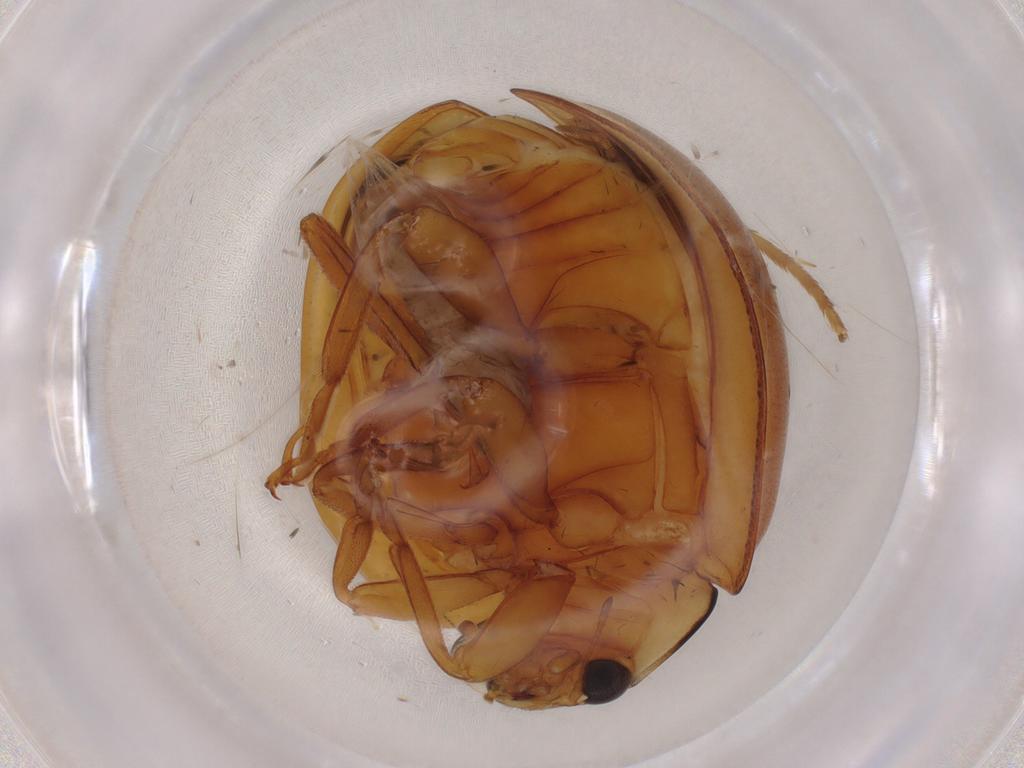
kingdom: Animalia
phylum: Arthropoda
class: Insecta
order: Coleoptera
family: Coccinellidae
